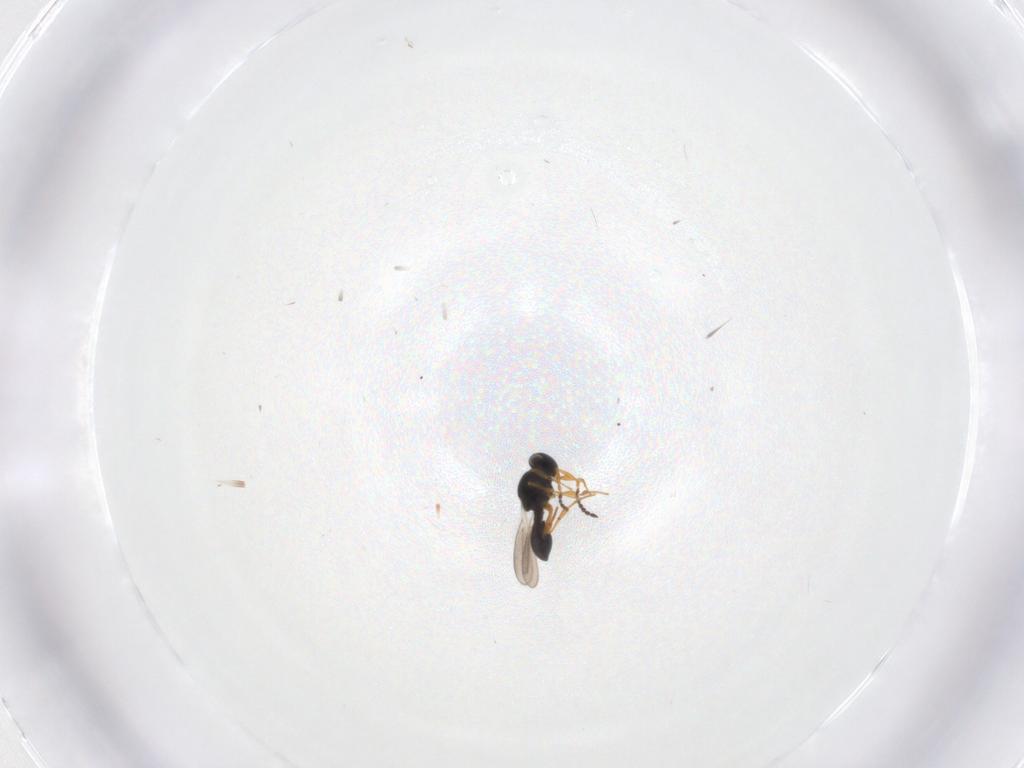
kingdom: Animalia
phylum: Arthropoda
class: Insecta
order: Hymenoptera
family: Platygastridae
